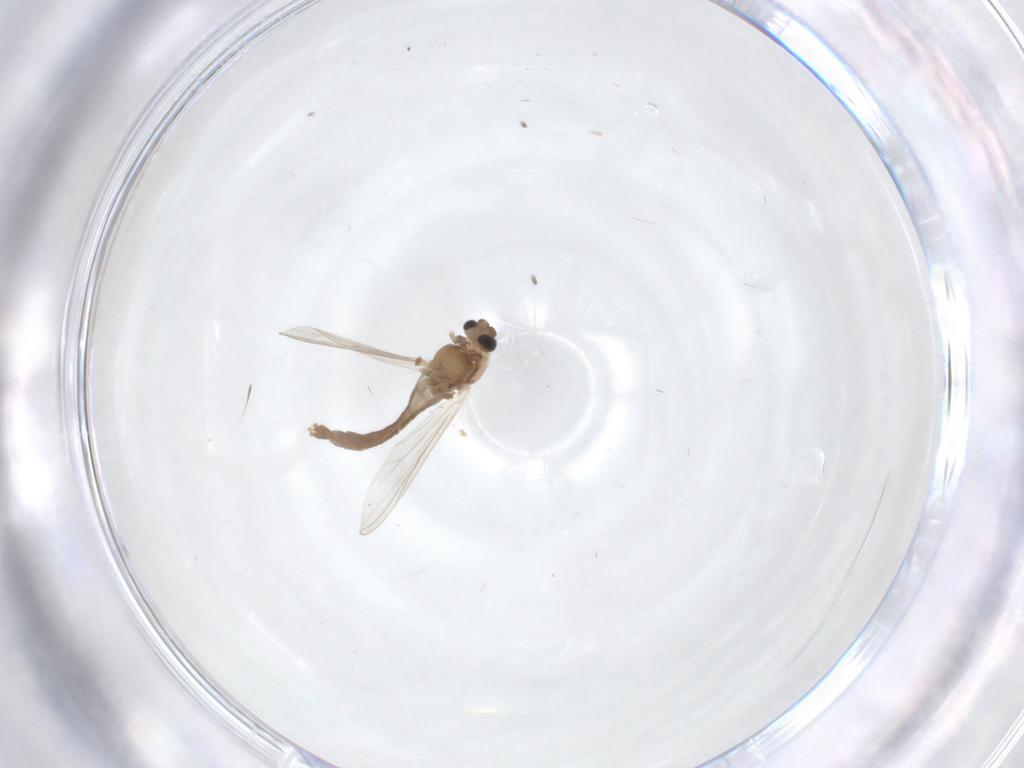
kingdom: Animalia
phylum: Arthropoda
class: Insecta
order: Diptera
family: Chironomidae
